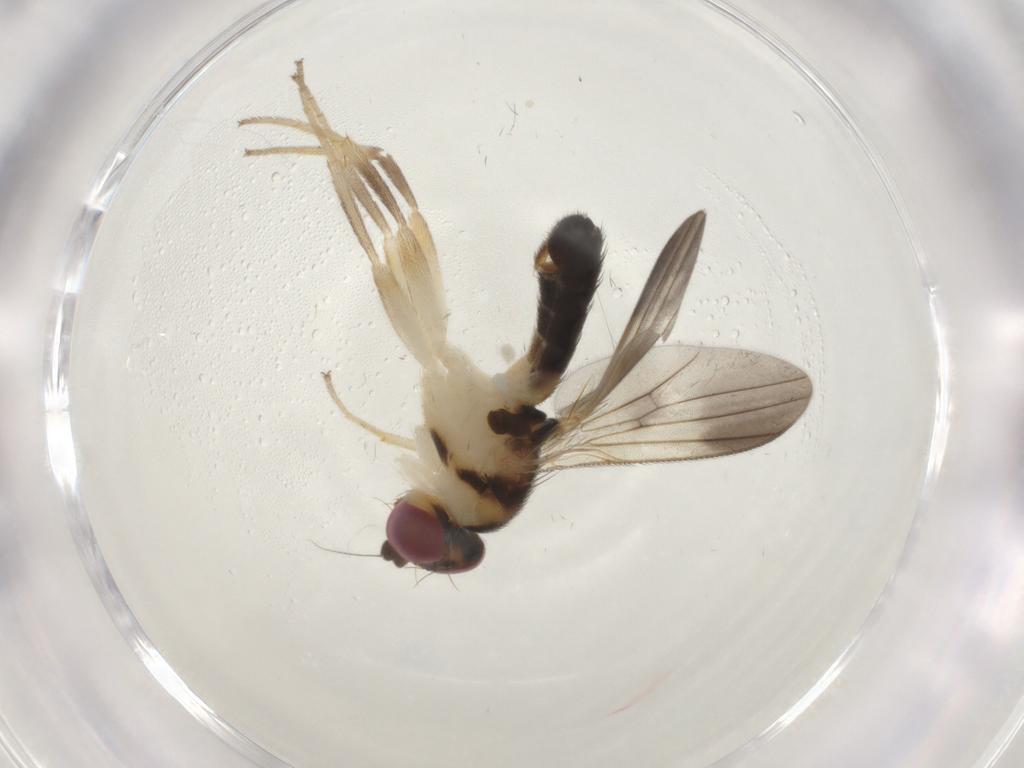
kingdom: Animalia
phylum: Arthropoda
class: Insecta
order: Diptera
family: Clusiidae
